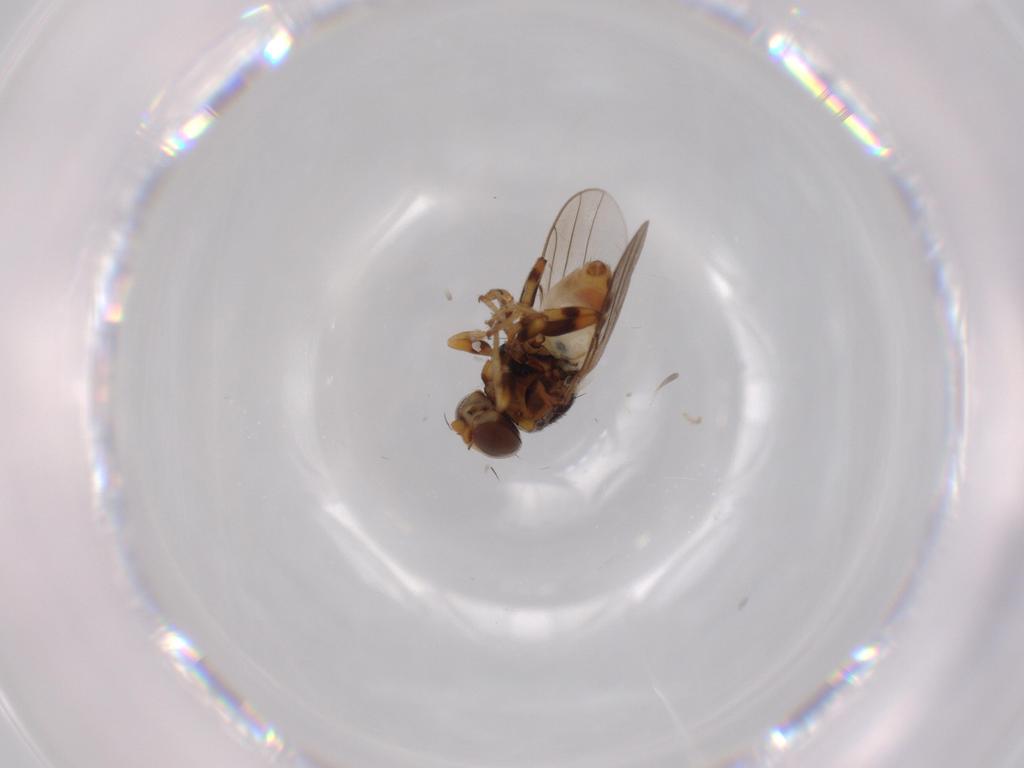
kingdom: Animalia
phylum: Arthropoda
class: Insecta
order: Diptera
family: Chloropidae
